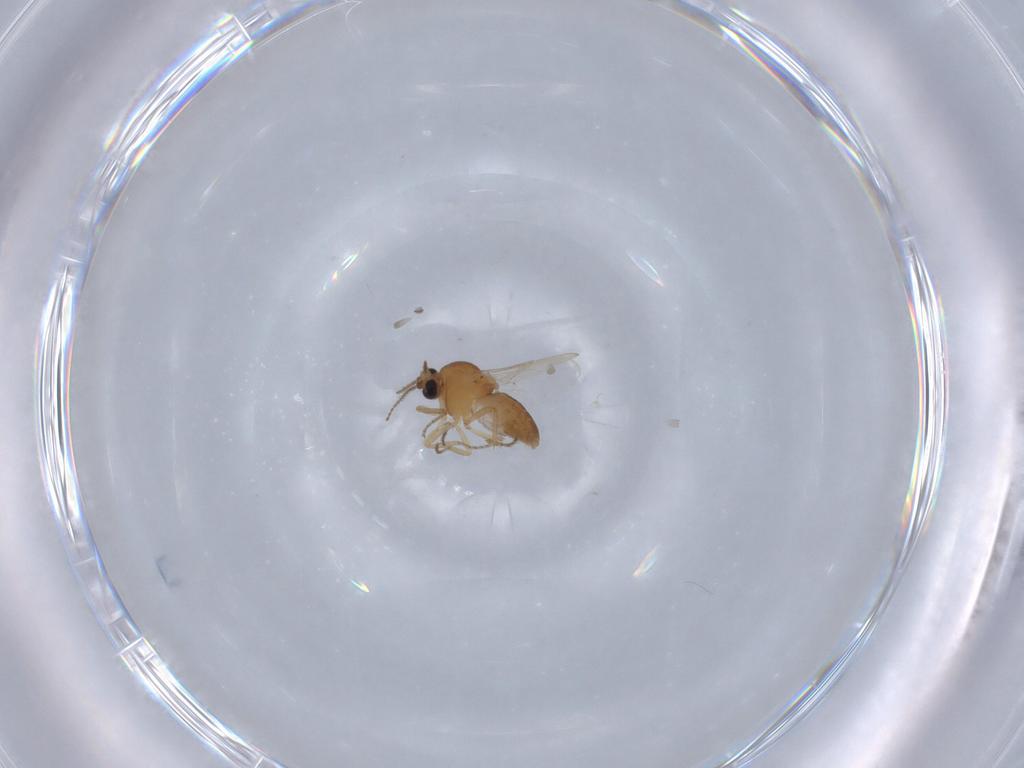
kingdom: Animalia
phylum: Arthropoda
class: Insecta
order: Diptera
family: Ceratopogonidae
